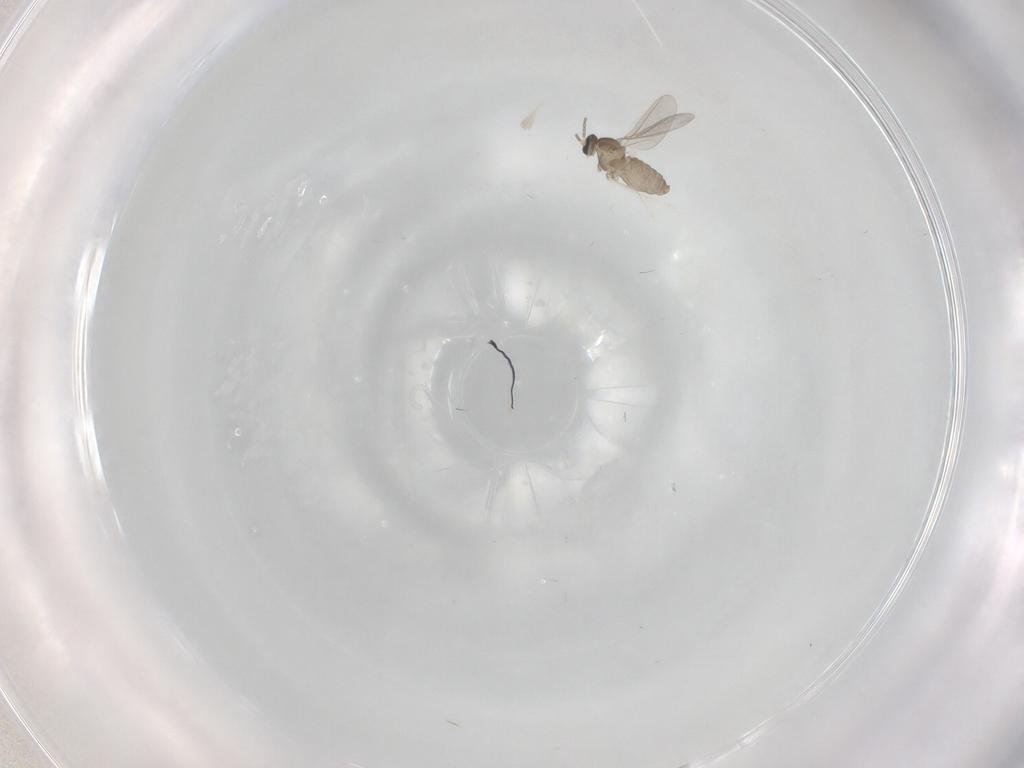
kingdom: Animalia
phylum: Arthropoda
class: Insecta
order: Diptera
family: Cecidomyiidae
